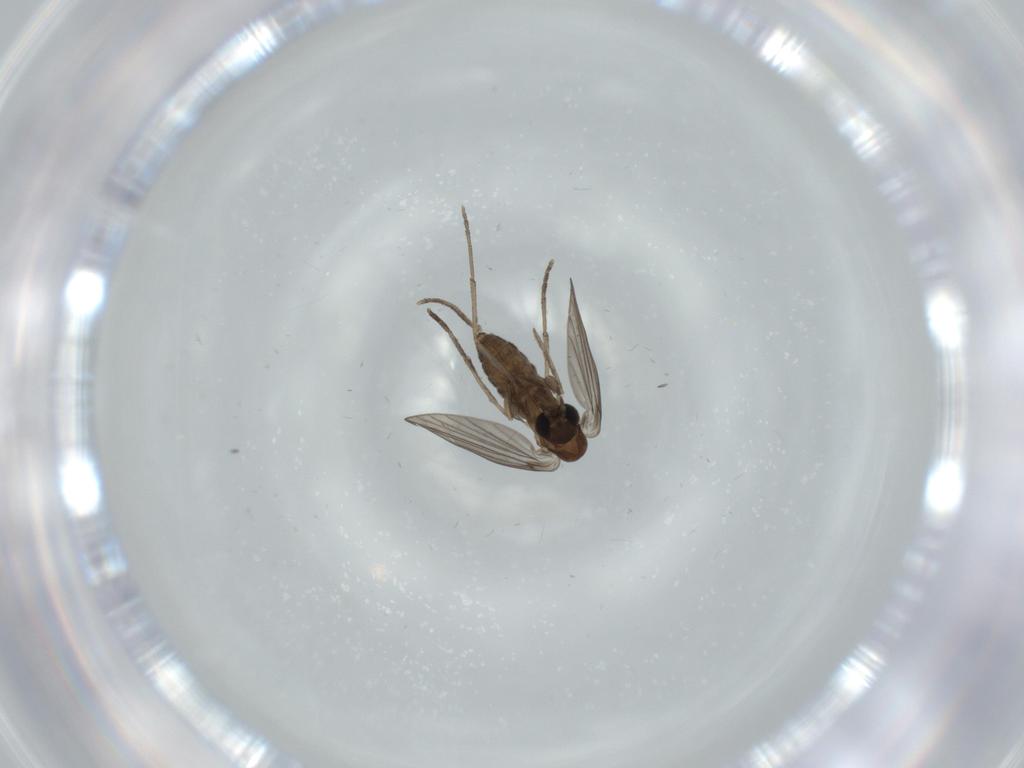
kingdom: Animalia
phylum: Arthropoda
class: Insecta
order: Diptera
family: Psychodidae
